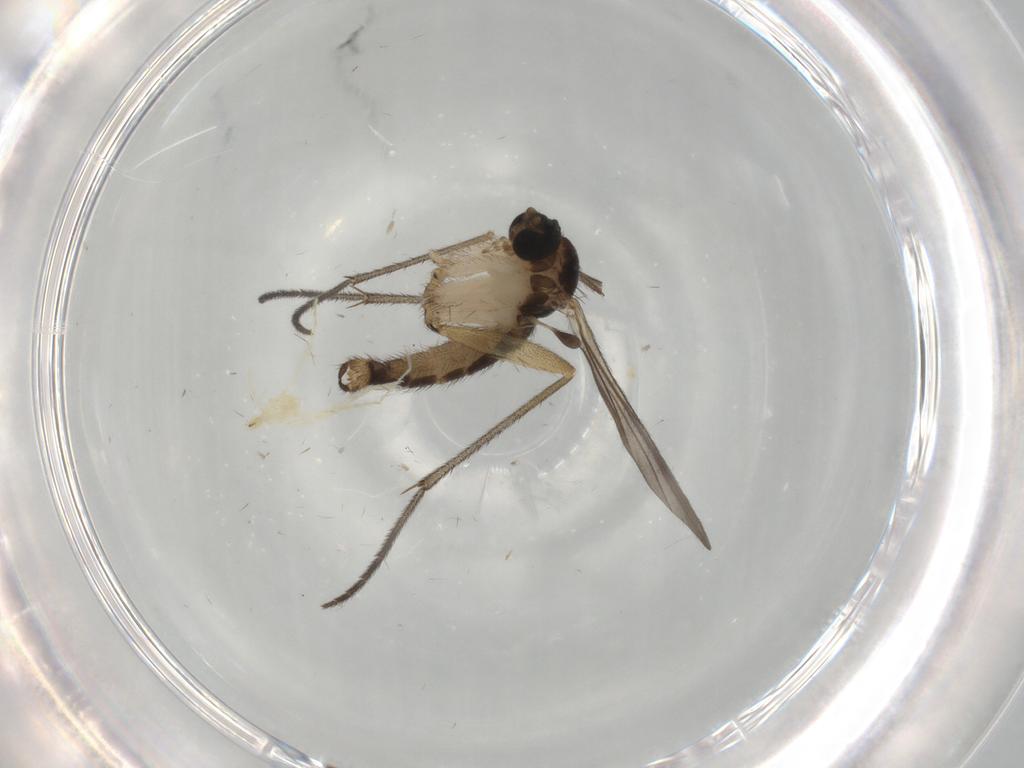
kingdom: Animalia
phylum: Arthropoda
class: Insecta
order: Diptera
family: Sciaridae
